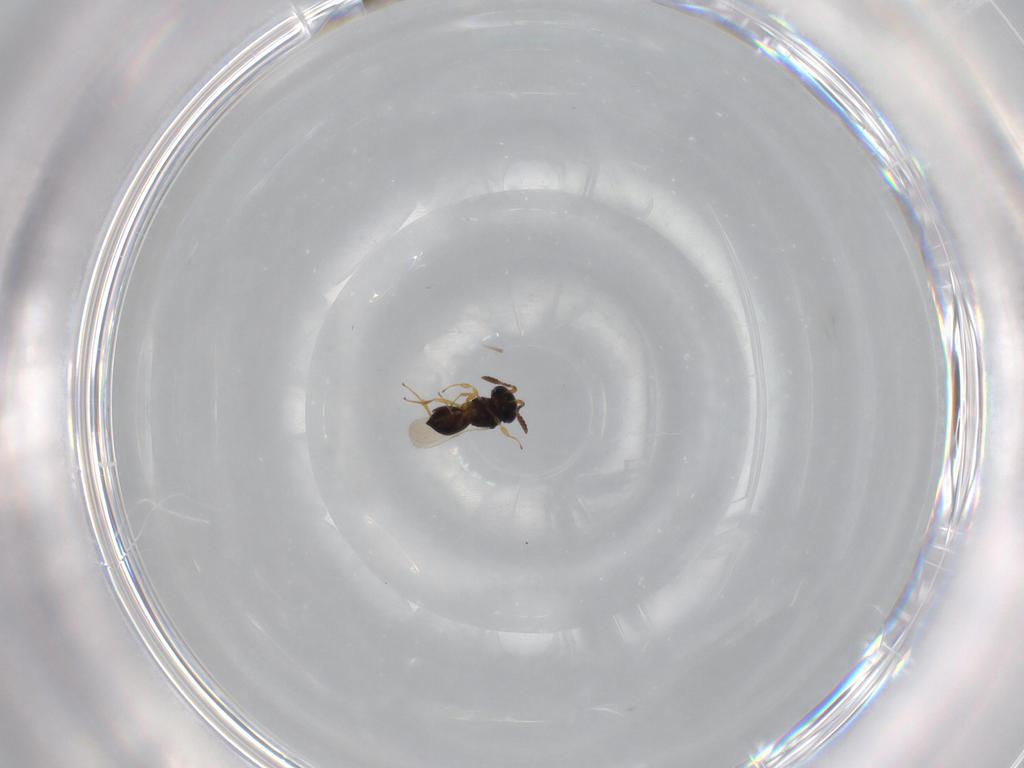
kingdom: Animalia
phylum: Arthropoda
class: Insecta
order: Hymenoptera
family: Scelionidae
